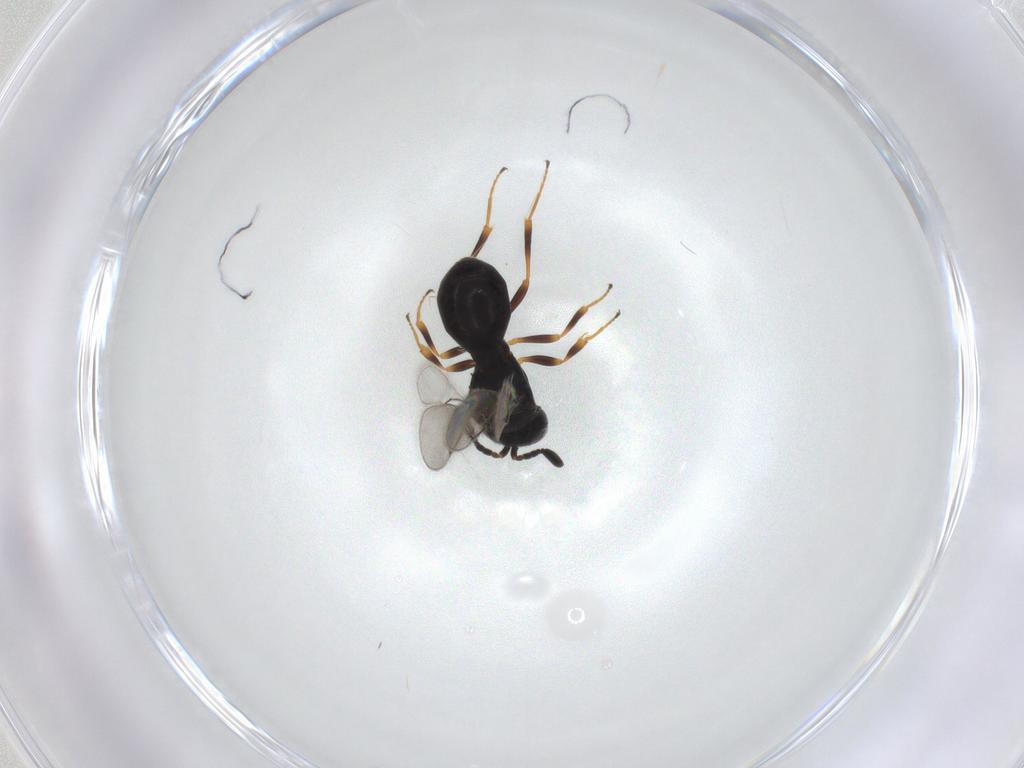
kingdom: Animalia
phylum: Arthropoda
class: Insecta
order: Hymenoptera
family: Scelionidae
